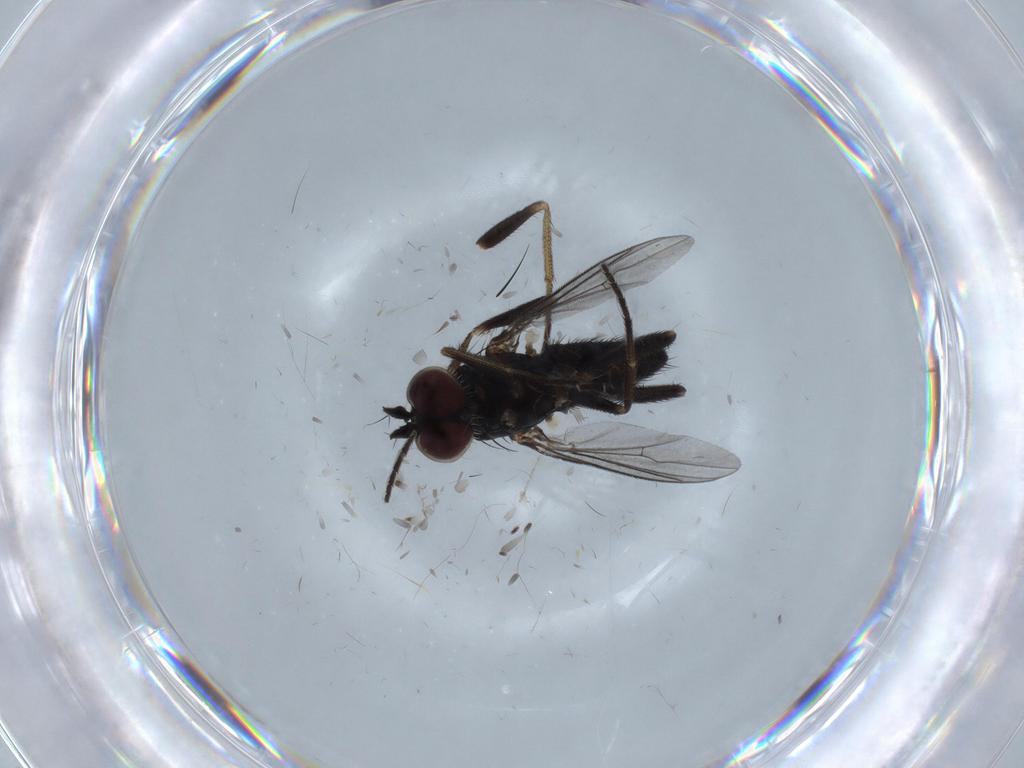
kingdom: Animalia
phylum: Arthropoda
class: Insecta
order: Diptera
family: Dolichopodidae
